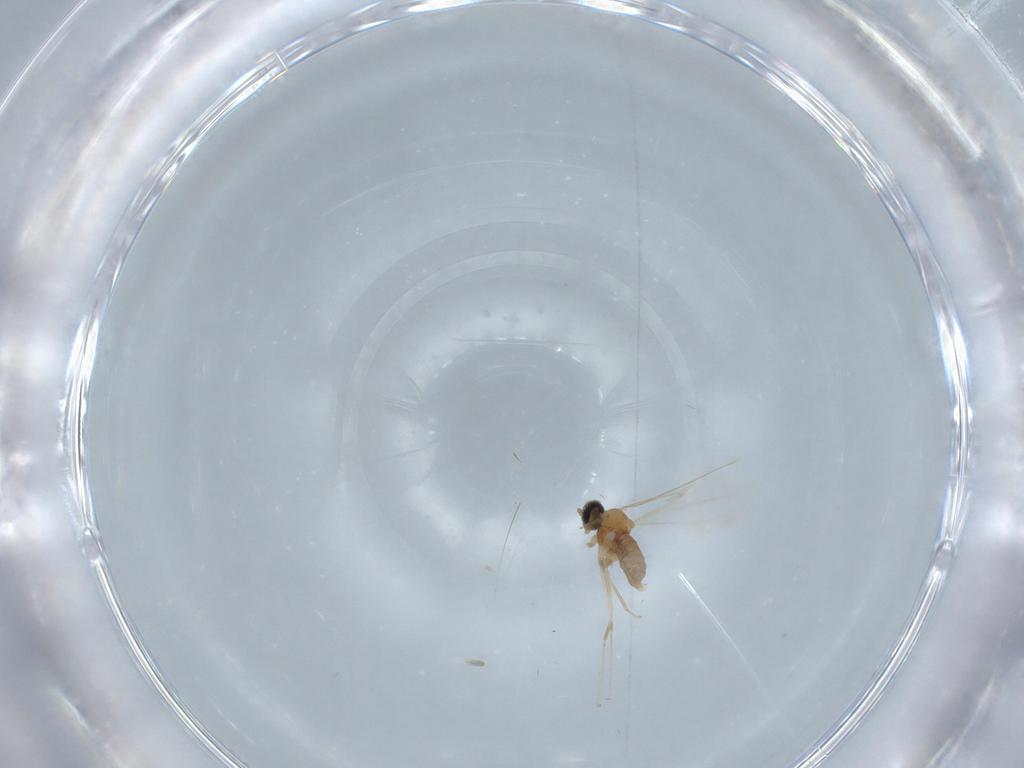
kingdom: Animalia
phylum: Arthropoda
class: Insecta
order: Diptera
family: Cecidomyiidae
